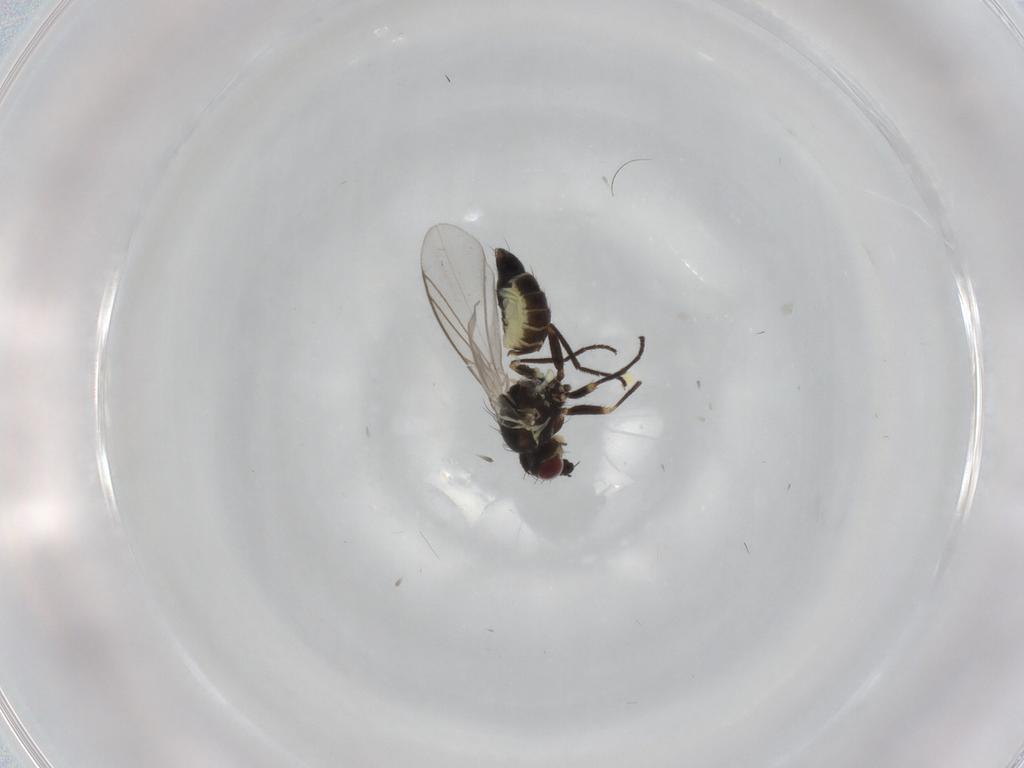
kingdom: Animalia
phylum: Arthropoda
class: Insecta
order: Diptera
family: Agromyzidae
